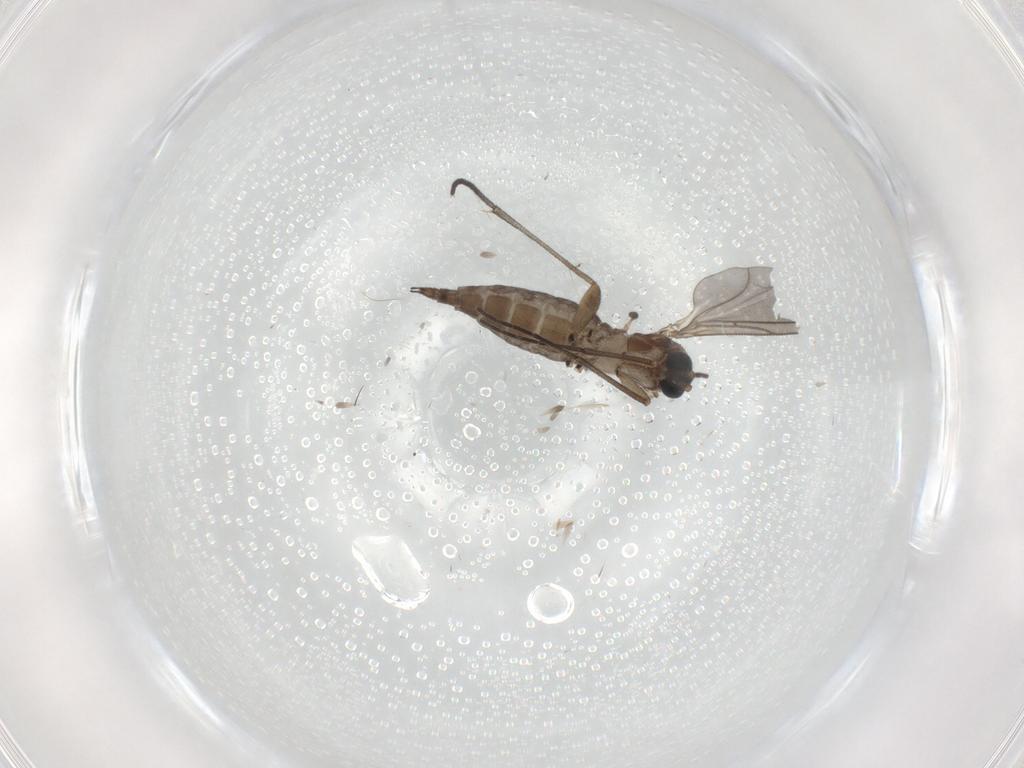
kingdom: Animalia
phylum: Arthropoda
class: Insecta
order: Diptera
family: Sciaridae
